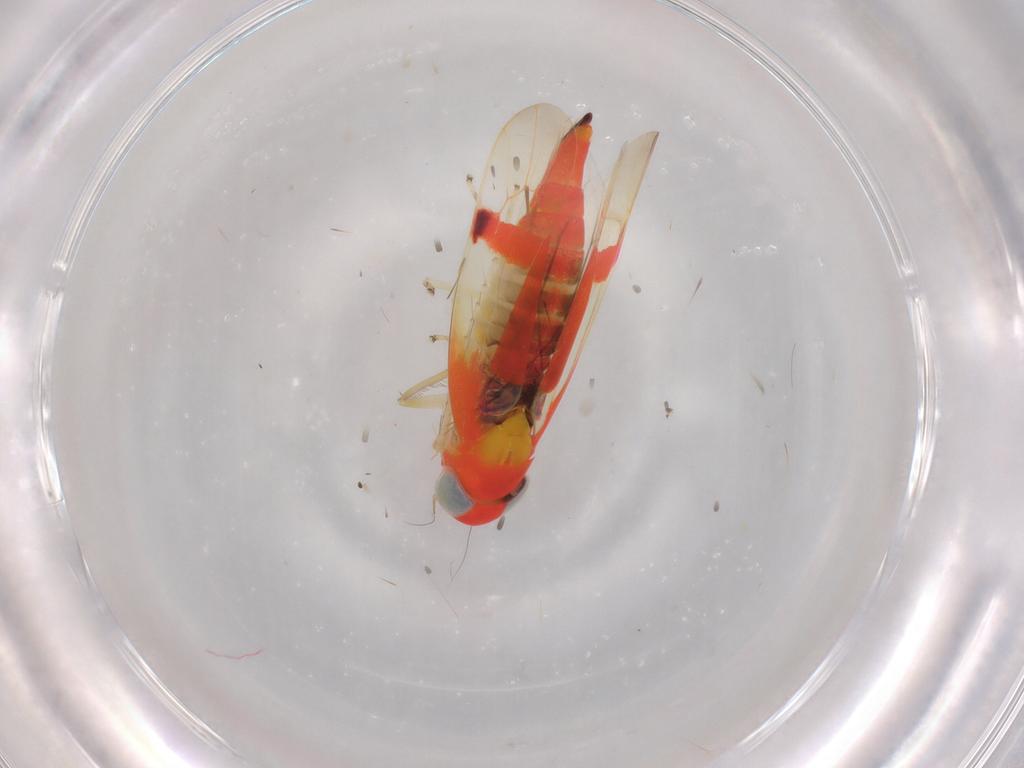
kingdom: Animalia
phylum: Arthropoda
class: Insecta
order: Hemiptera
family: Cicadellidae
